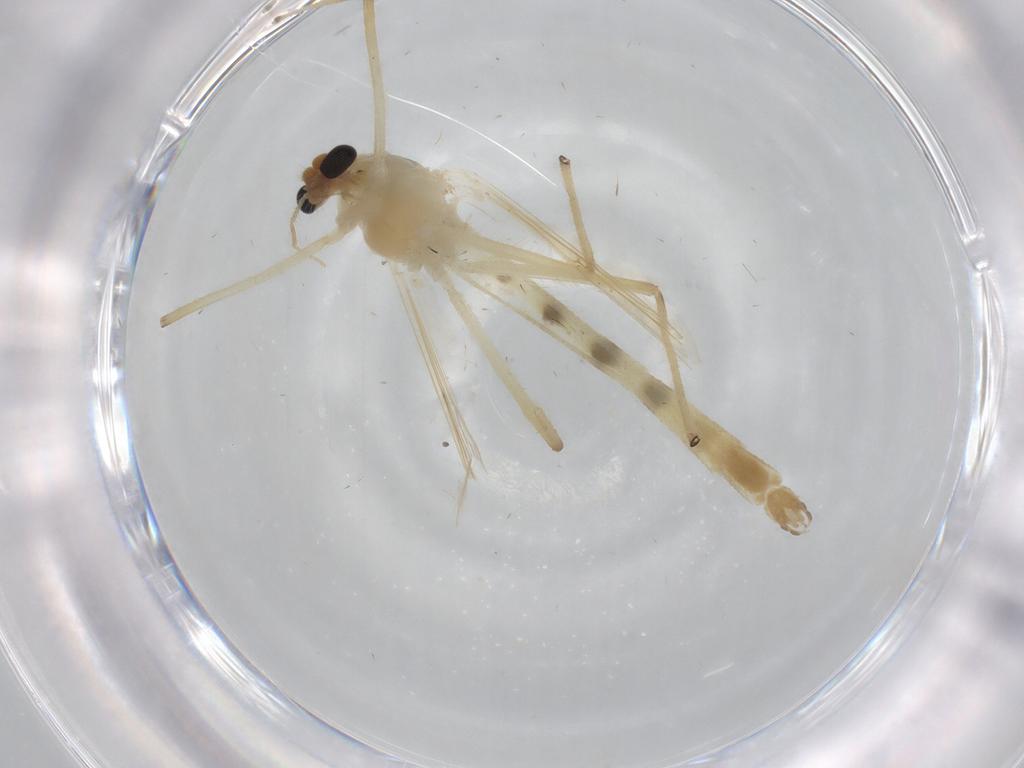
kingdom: Animalia
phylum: Arthropoda
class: Insecta
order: Diptera
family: Chironomidae
